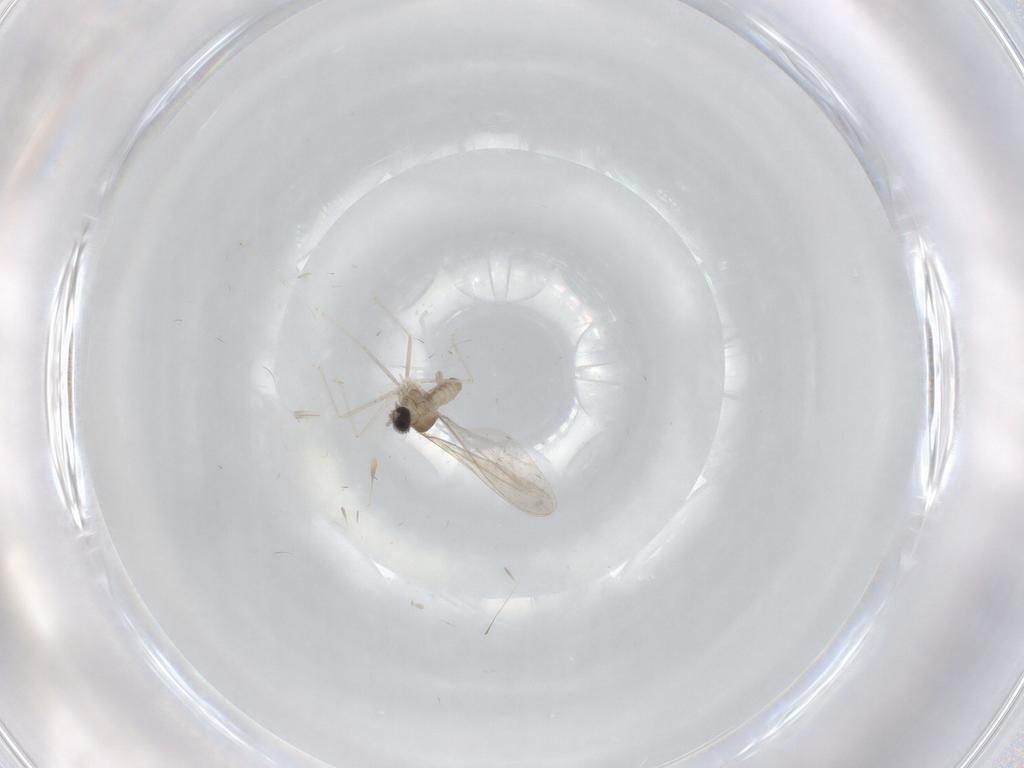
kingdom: Animalia
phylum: Arthropoda
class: Insecta
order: Diptera
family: Cecidomyiidae
